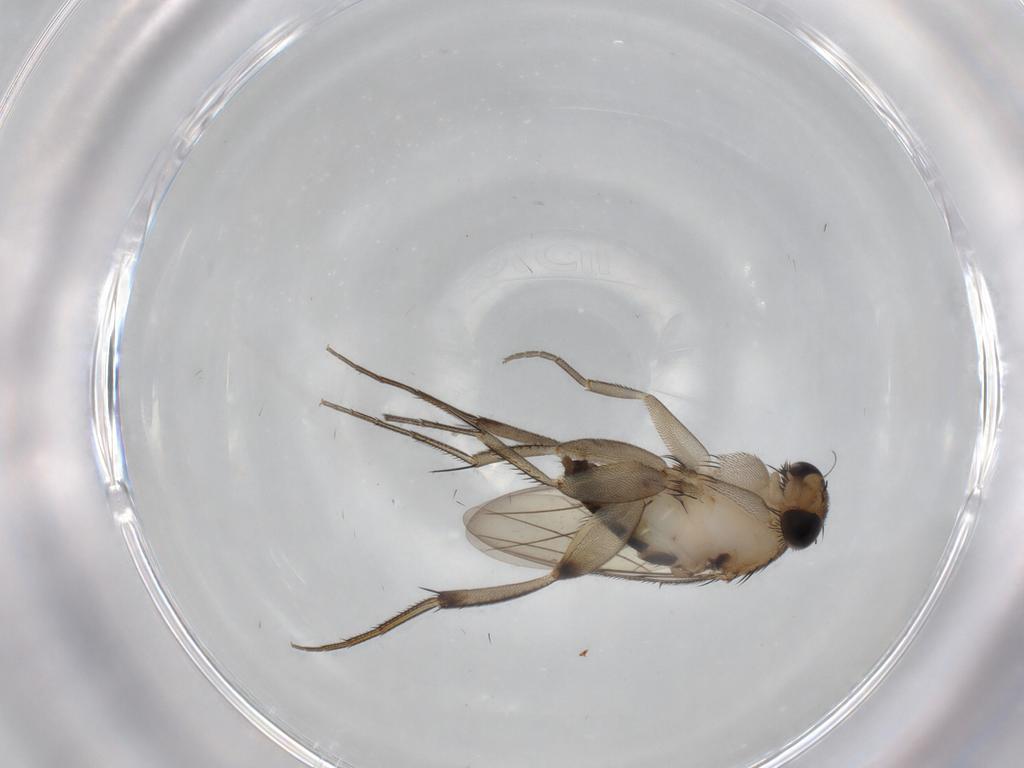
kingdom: Animalia
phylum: Arthropoda
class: Insecta
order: Diptera
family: Phoridae
